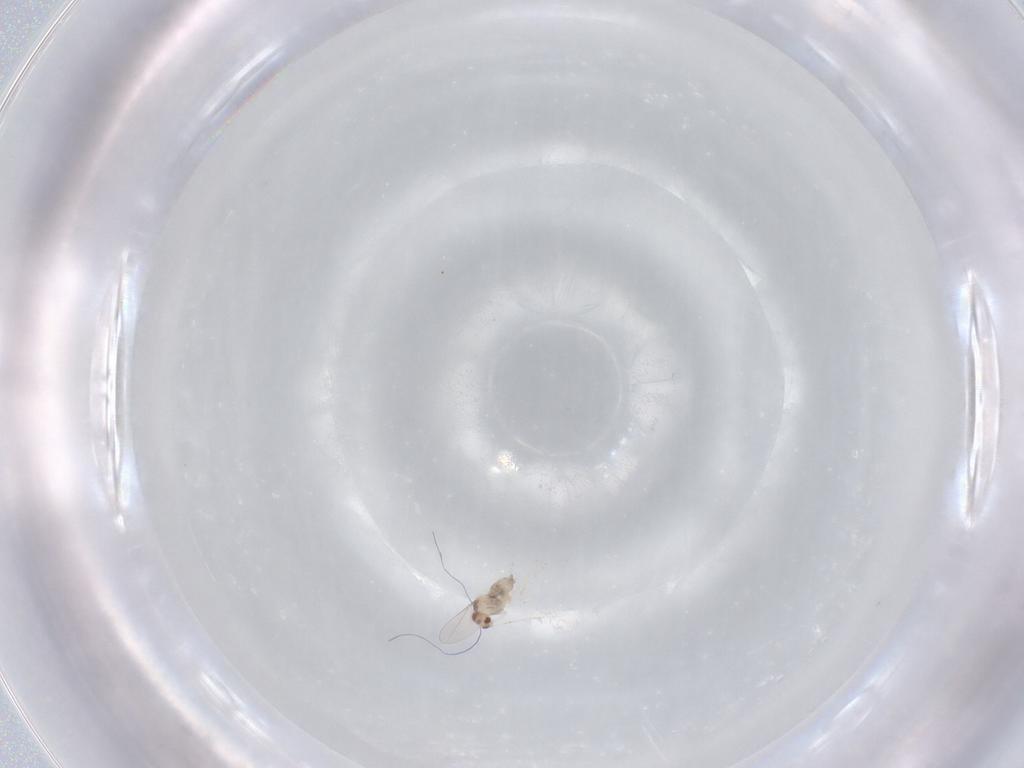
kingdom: Animalia
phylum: Arthropoda
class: Insecta
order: Diptera
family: Cecidomyiidae
